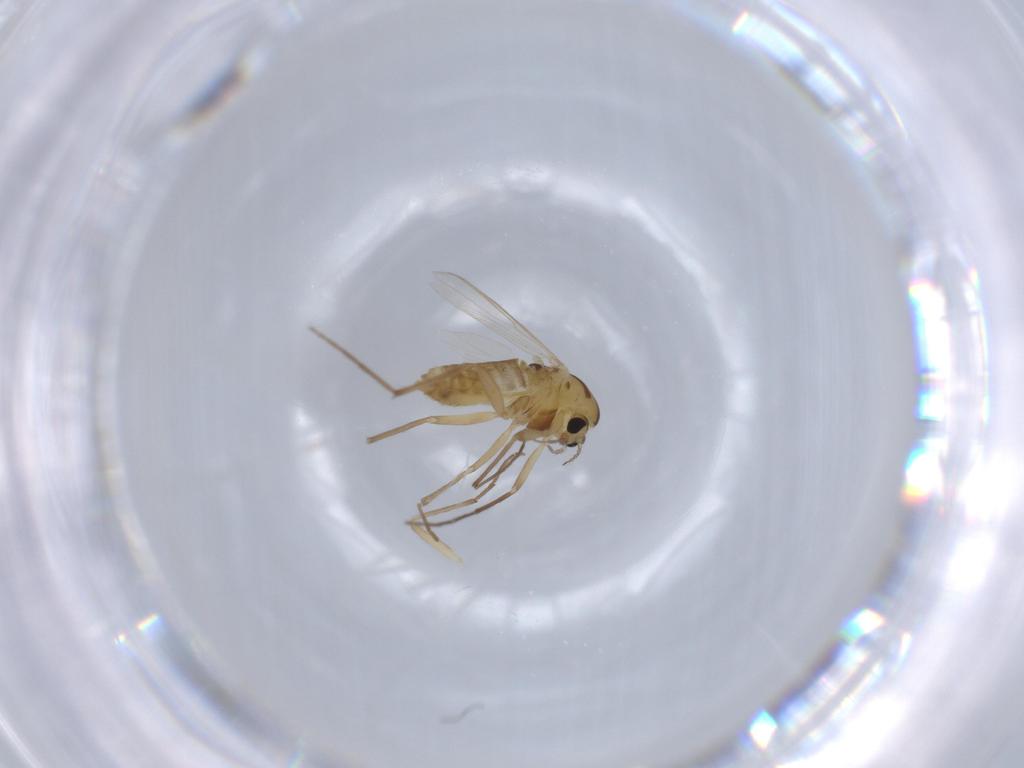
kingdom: Animalia
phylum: Arthropoda
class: Insecta
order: Diptera
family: Chironomidae
